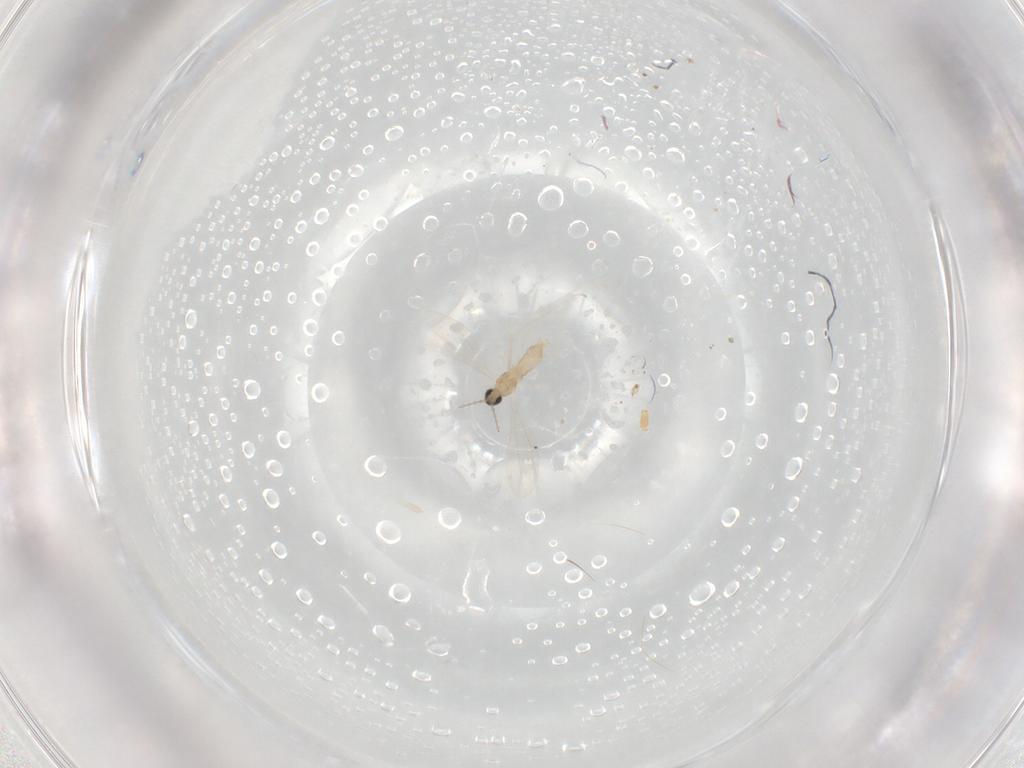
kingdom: Animalia
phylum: Arthropoda
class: Insecta
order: Diptera
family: Cecidomyiidae
